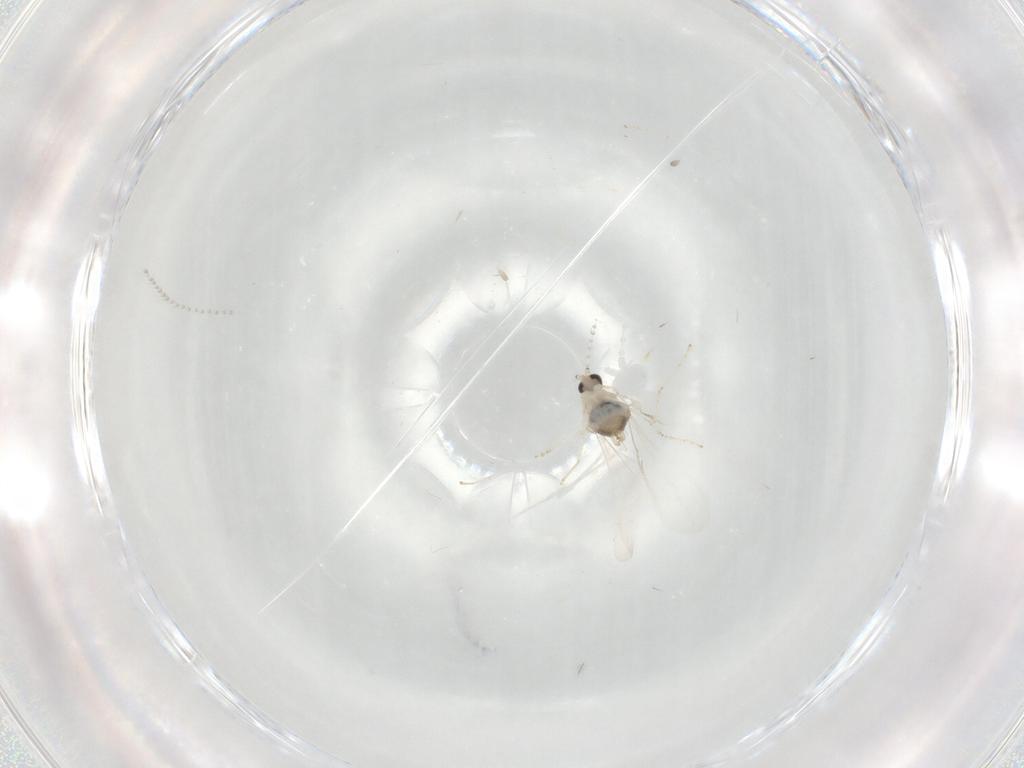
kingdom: Animalia
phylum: Arthropoda
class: Insecta
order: Diptera
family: Cecidomyiidae
